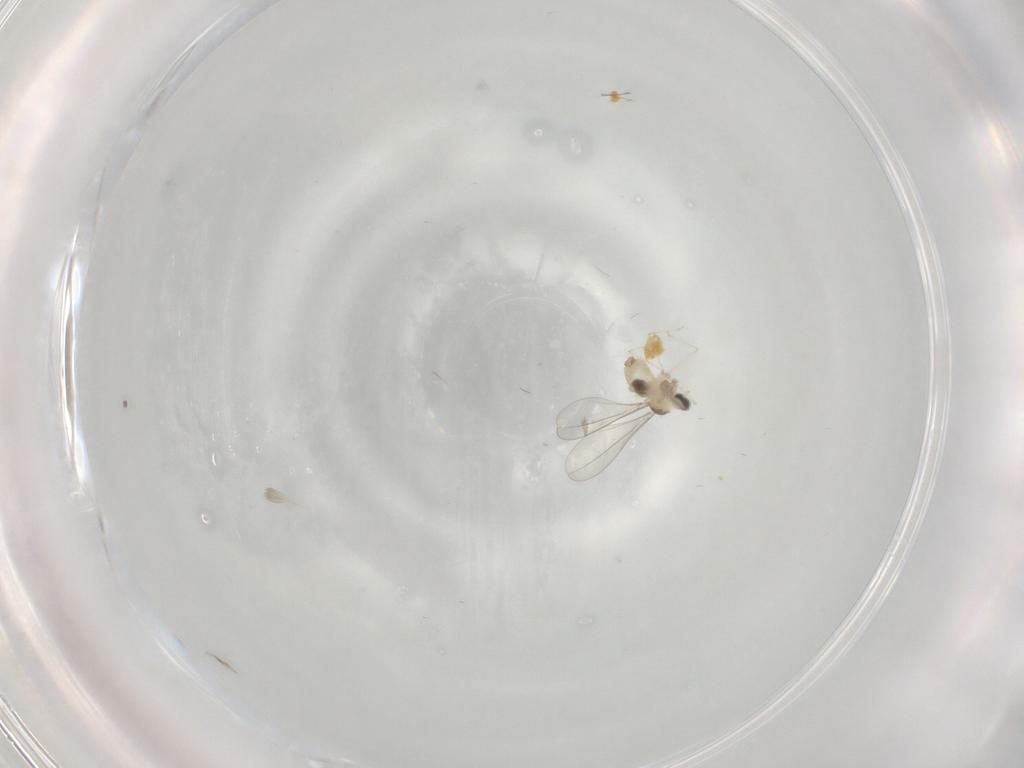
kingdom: Animalia
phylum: Arthropoda
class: Insecta
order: Diptera
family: Cecidomyiidae
